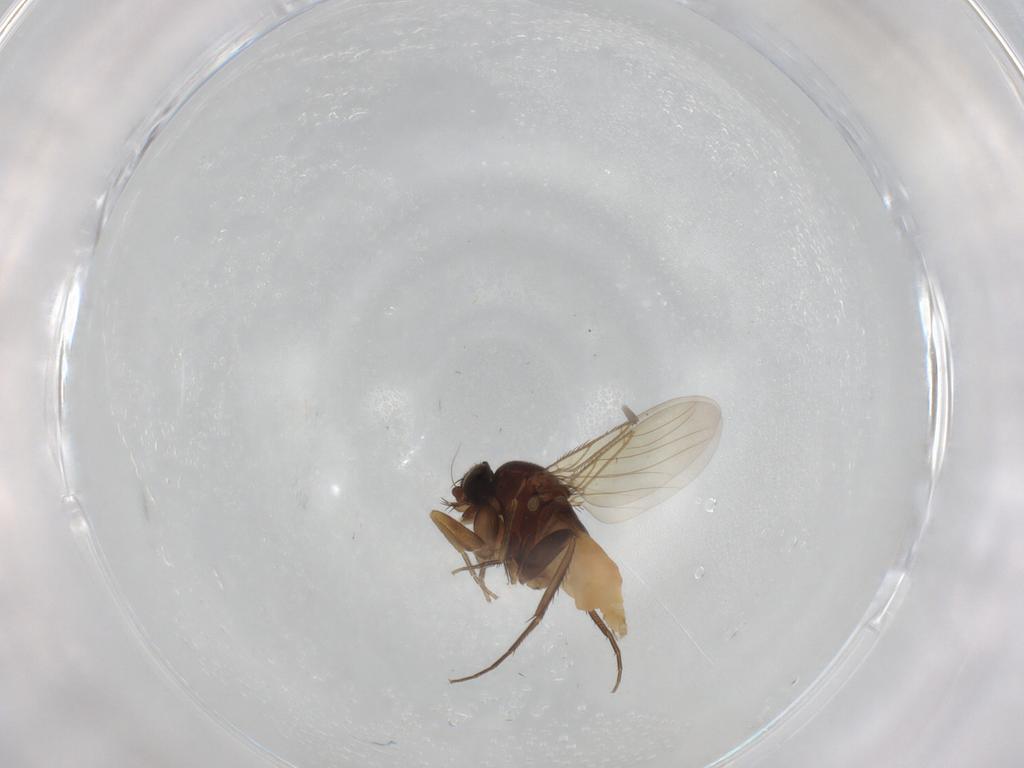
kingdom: Animalia
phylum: Arthropoda
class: Insecta
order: Diptera
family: Phoridae
